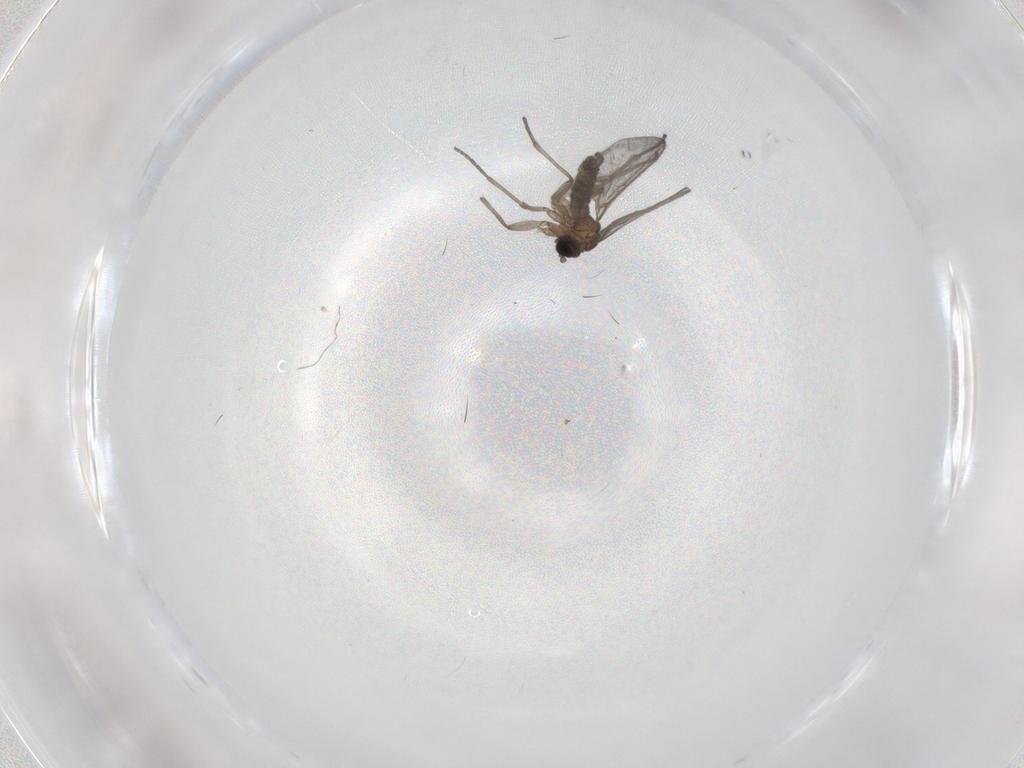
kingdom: Animalia
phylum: Arthropoda
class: Insecta
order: Diptera
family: Sciaridae
